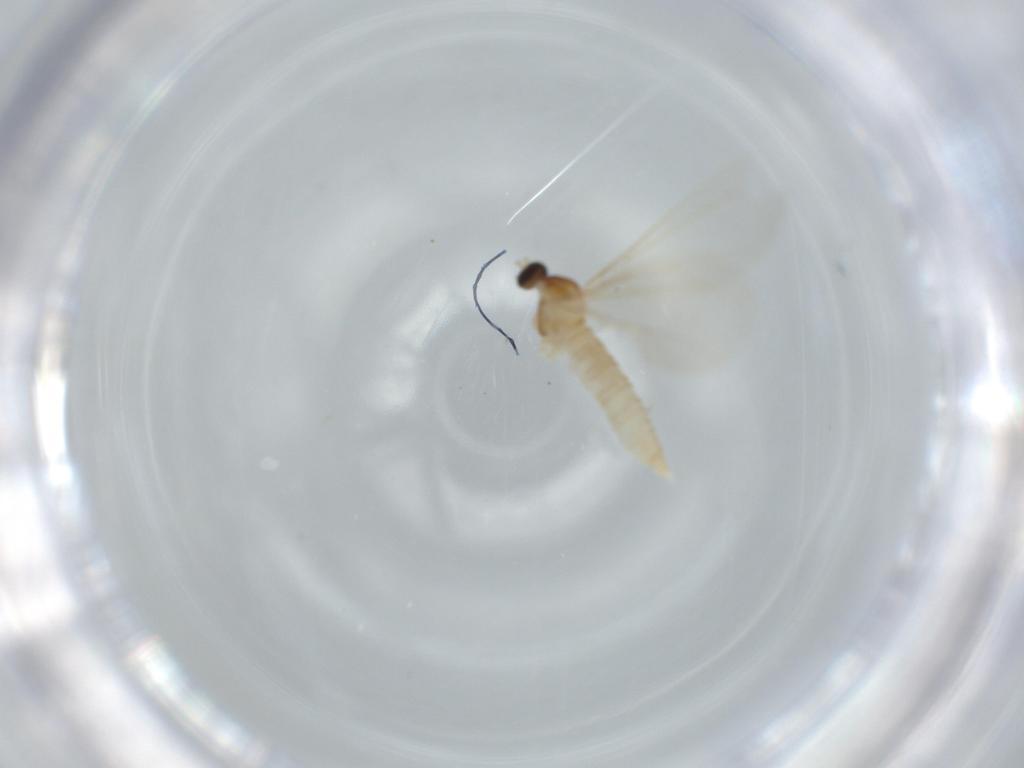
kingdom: Animalia
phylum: Arthropoda
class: Insecta
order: Diptera
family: Cecidomyiidae
